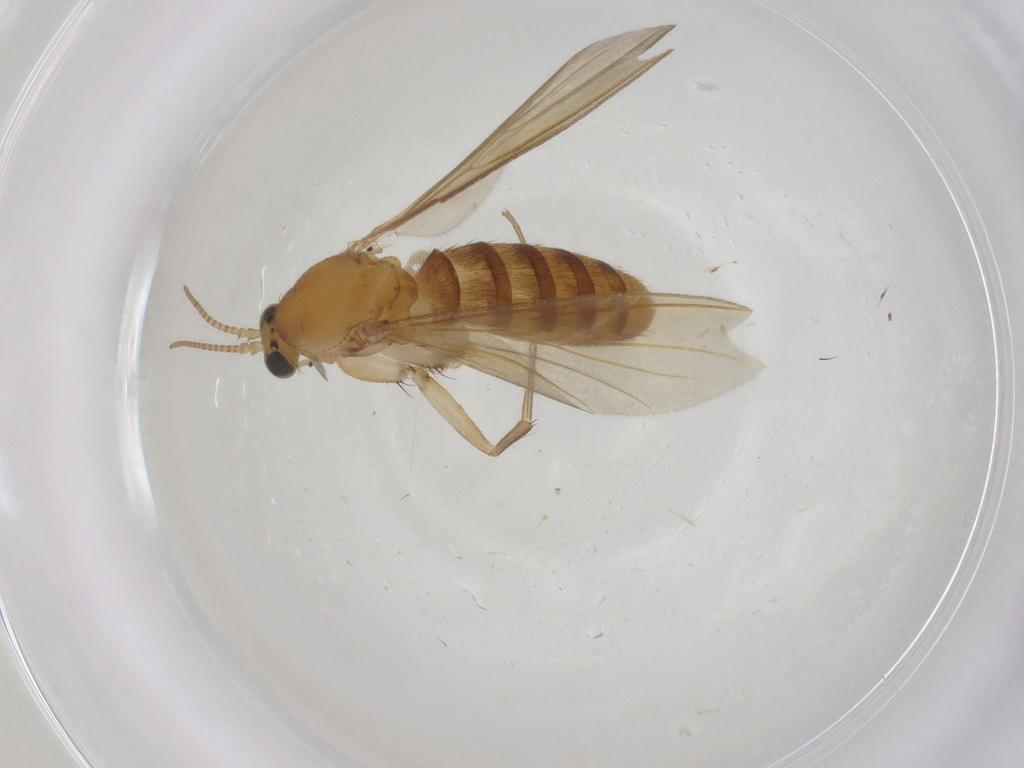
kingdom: Animalia
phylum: Arthropoda
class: Insecta
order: Diptera
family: Mycetophilidae
